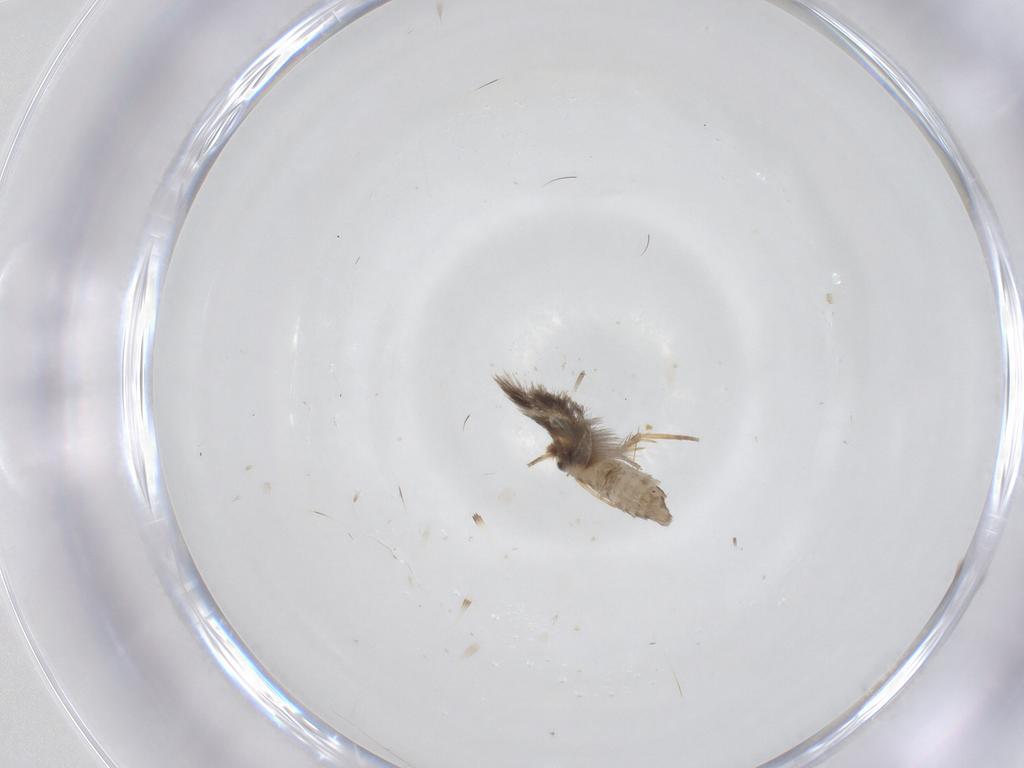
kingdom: Animalia
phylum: Arthropoda
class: Insecta
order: Lepidoptera
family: Nepticulidae
